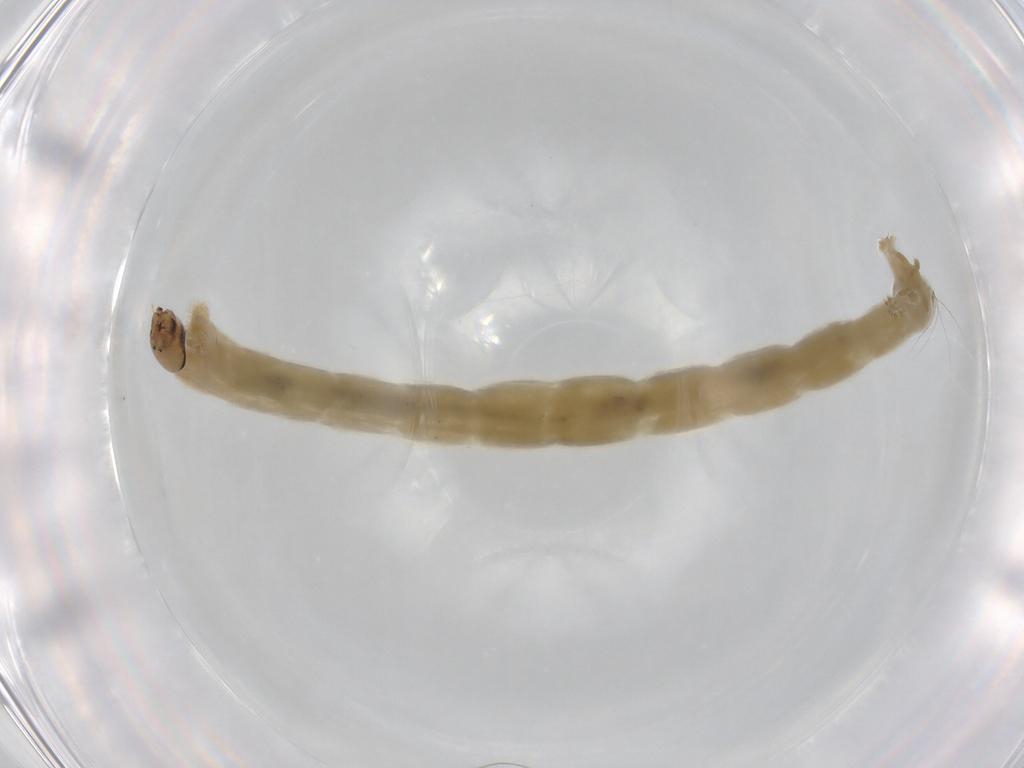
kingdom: Animalia
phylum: Arthropoda
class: Insecta
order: Diptera
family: Chironomidae
